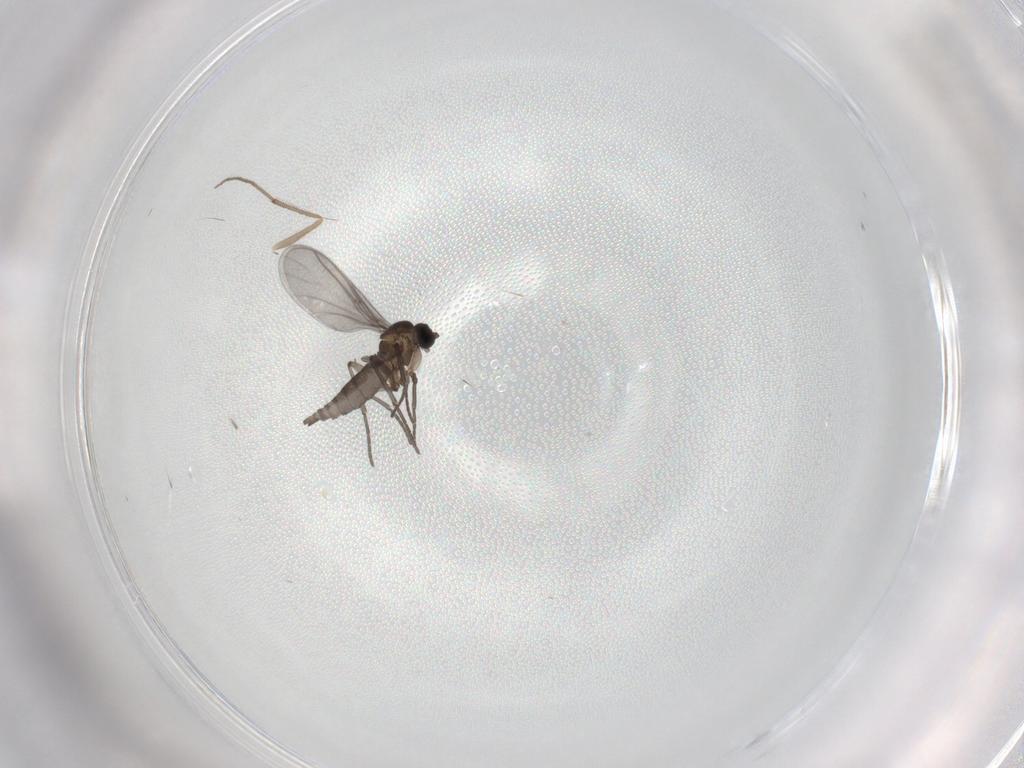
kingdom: Animalia
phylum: Arthropoda
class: Insecta
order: Diptera
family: Chironomidae
